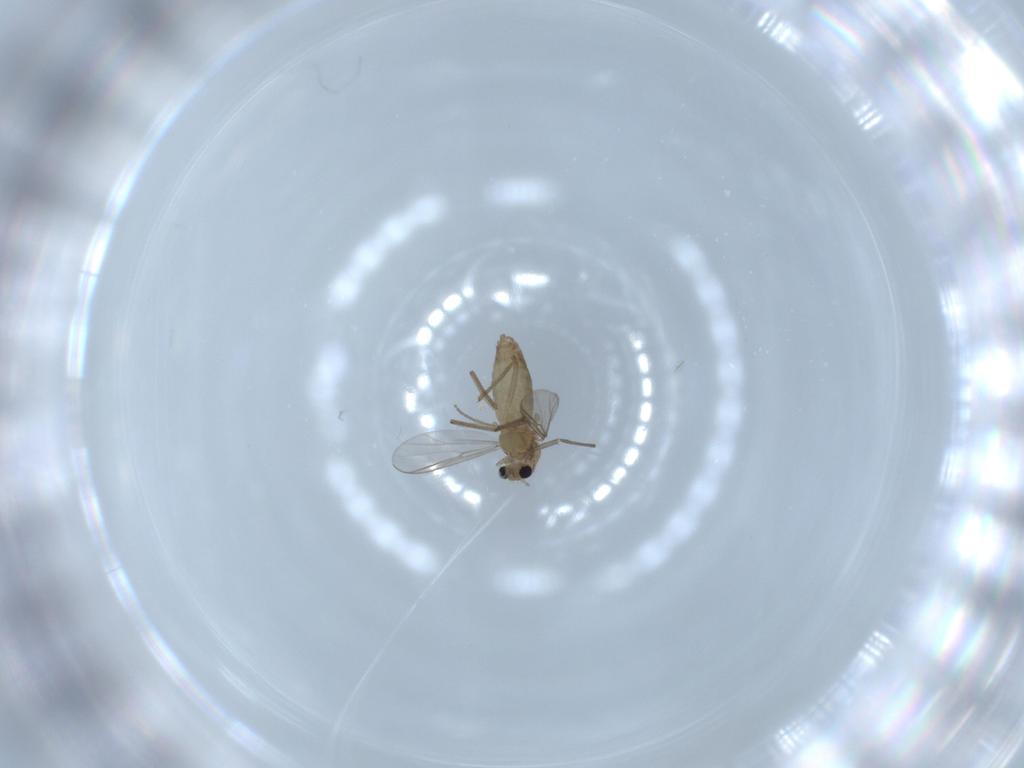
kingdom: Animalia
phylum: Arthropoda
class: Insecta
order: Diptera
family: Chironomidae
